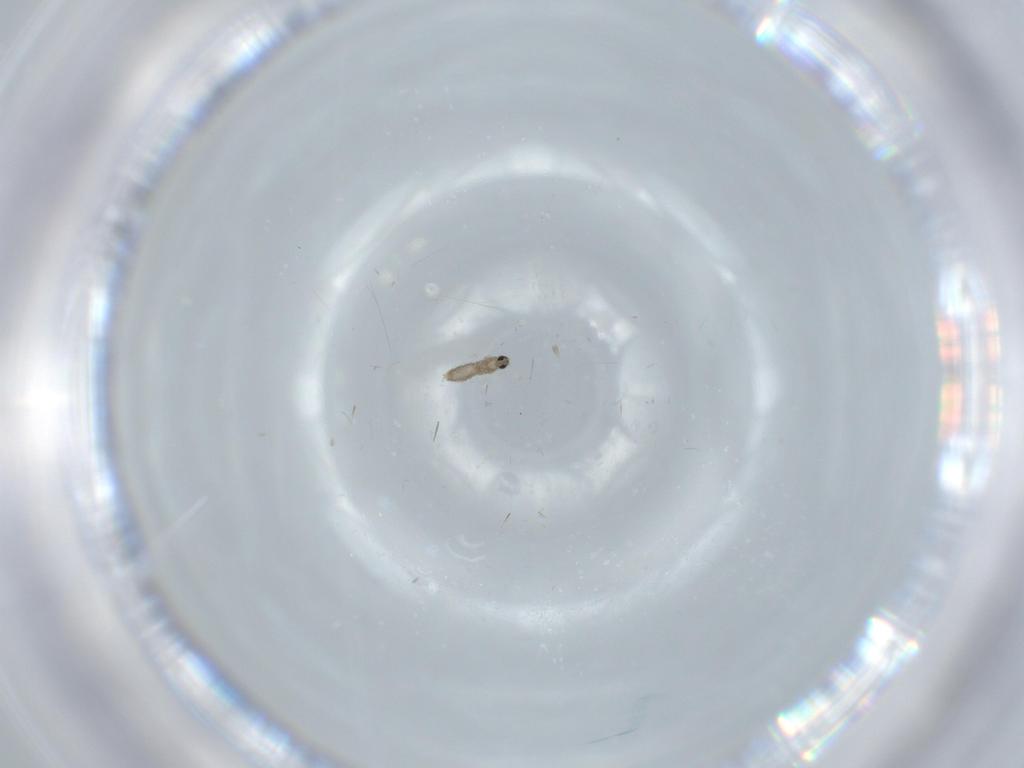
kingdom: Animalia
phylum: Arthropoda
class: Insecta
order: Diptera
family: Cecidomyiidae
